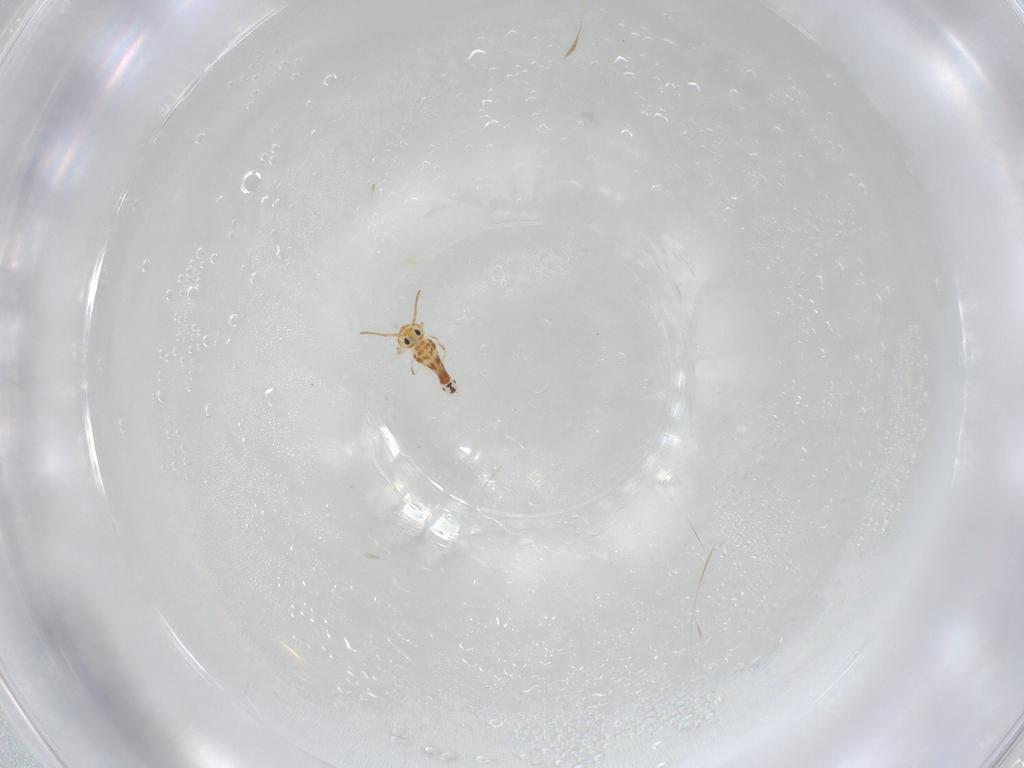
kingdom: Animalia
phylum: Arthropoda
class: Collembola
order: Symphypleona
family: Bourletiellidae
